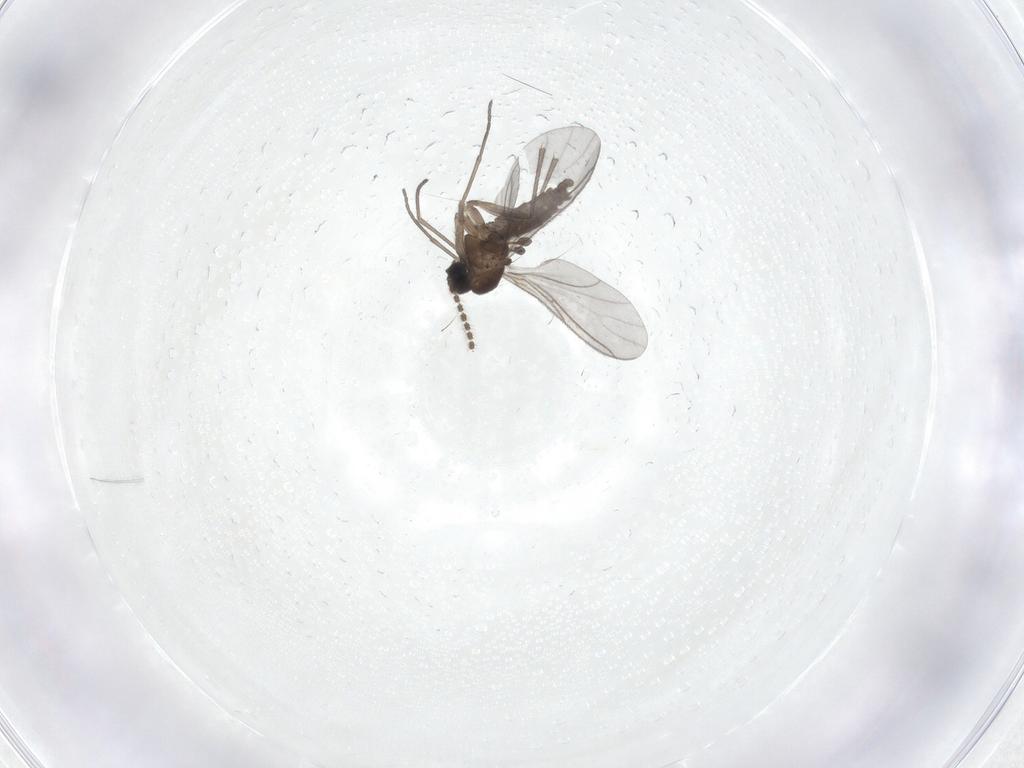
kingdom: Animalia
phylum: Arthropoda
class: Insecta
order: Diptera
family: Sciaridae
